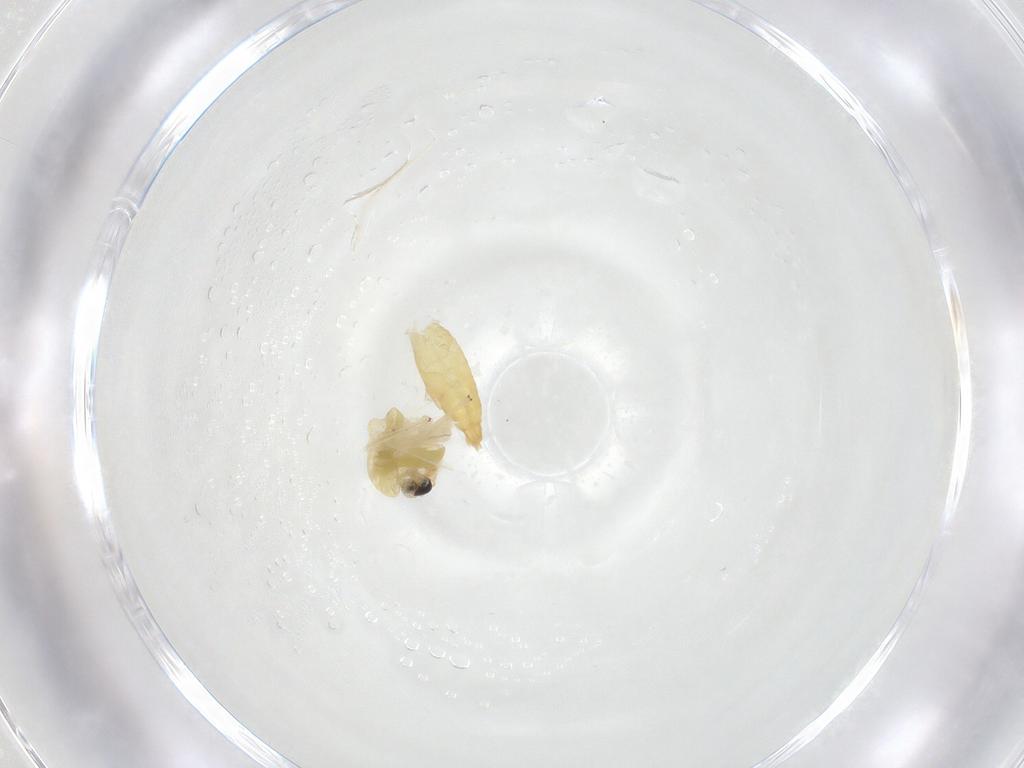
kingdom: Animalia
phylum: Arthropoda
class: Insecta
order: Diptera
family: Chironomidae
